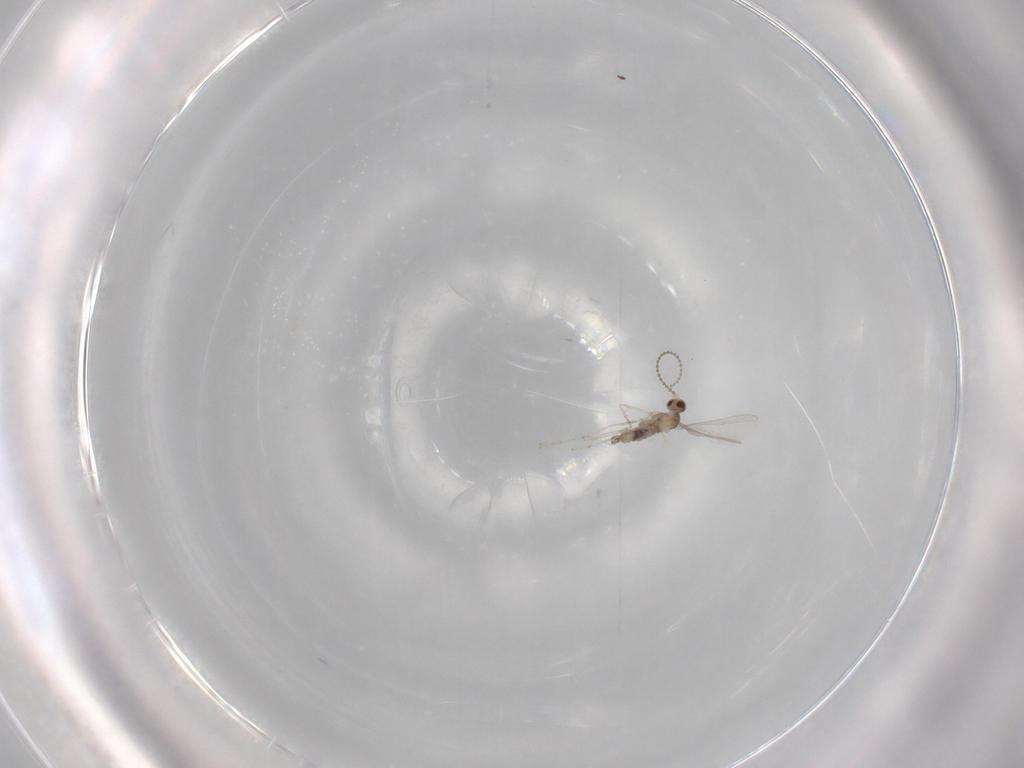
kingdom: Animalia
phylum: Arthropoda
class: Insecta
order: Diptera
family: Cecidomyiidae
